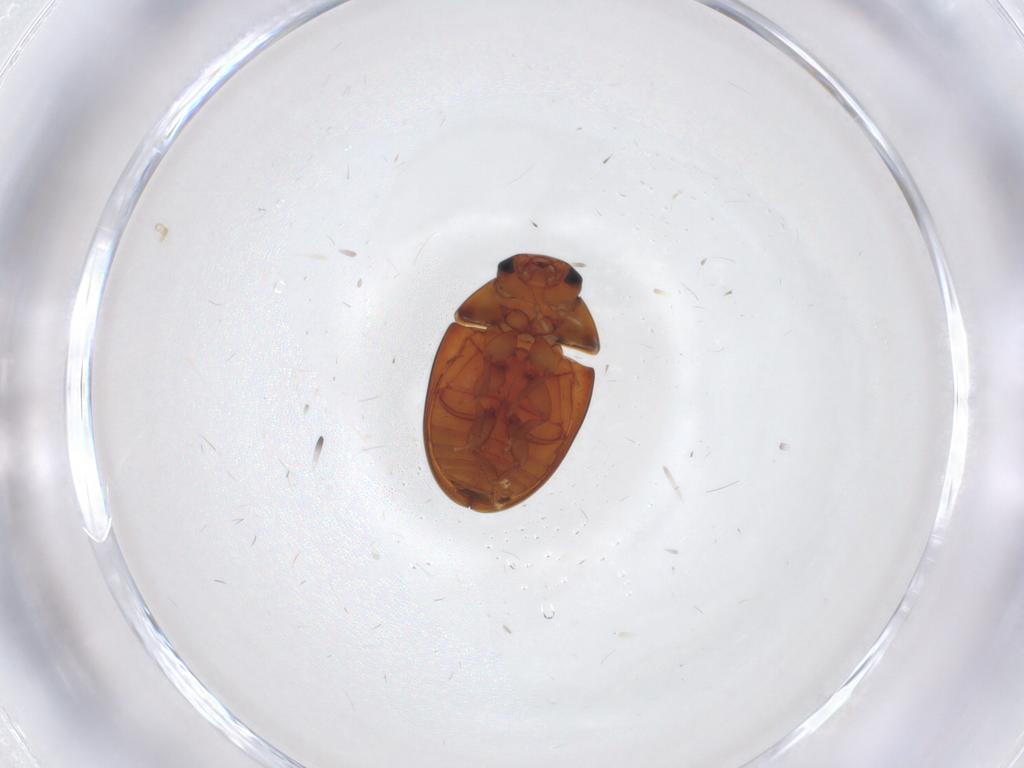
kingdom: Animalia
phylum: Arthropoda
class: Insecta
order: Lepidoptera
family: Oecophoridae
